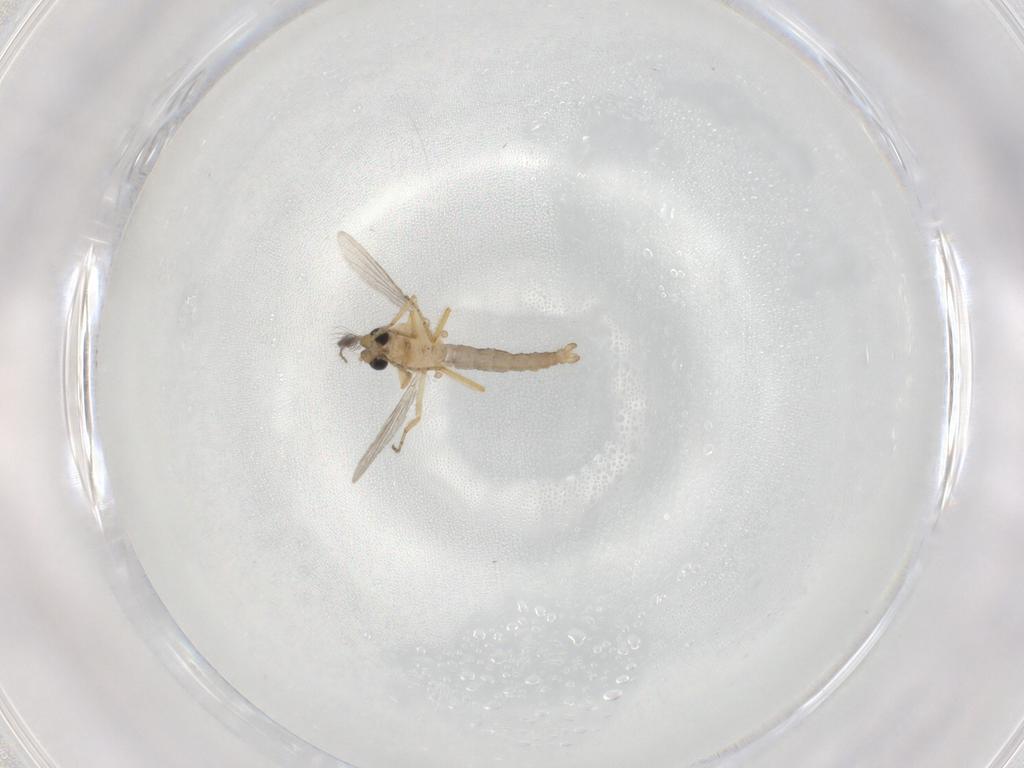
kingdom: Animalia
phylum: Arthropoda
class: Insecta
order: Diptera
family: Ceratopogonidae
